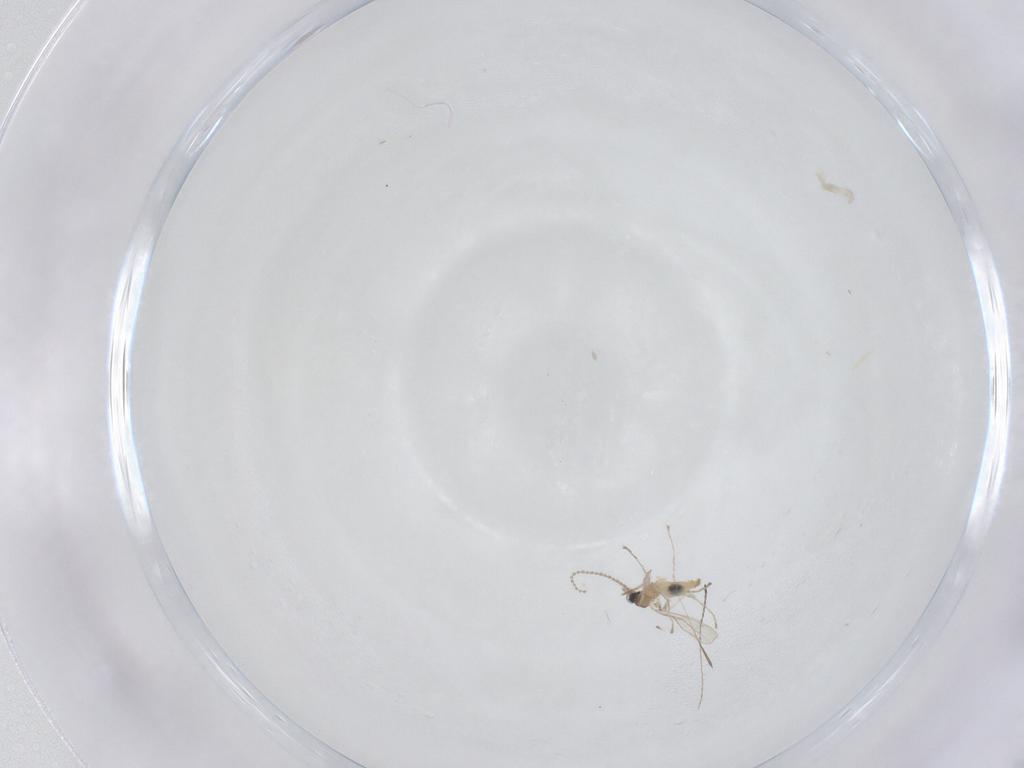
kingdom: Animalia
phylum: Arthropoda
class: Insecta
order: Diptera
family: Cecidomyiidae
